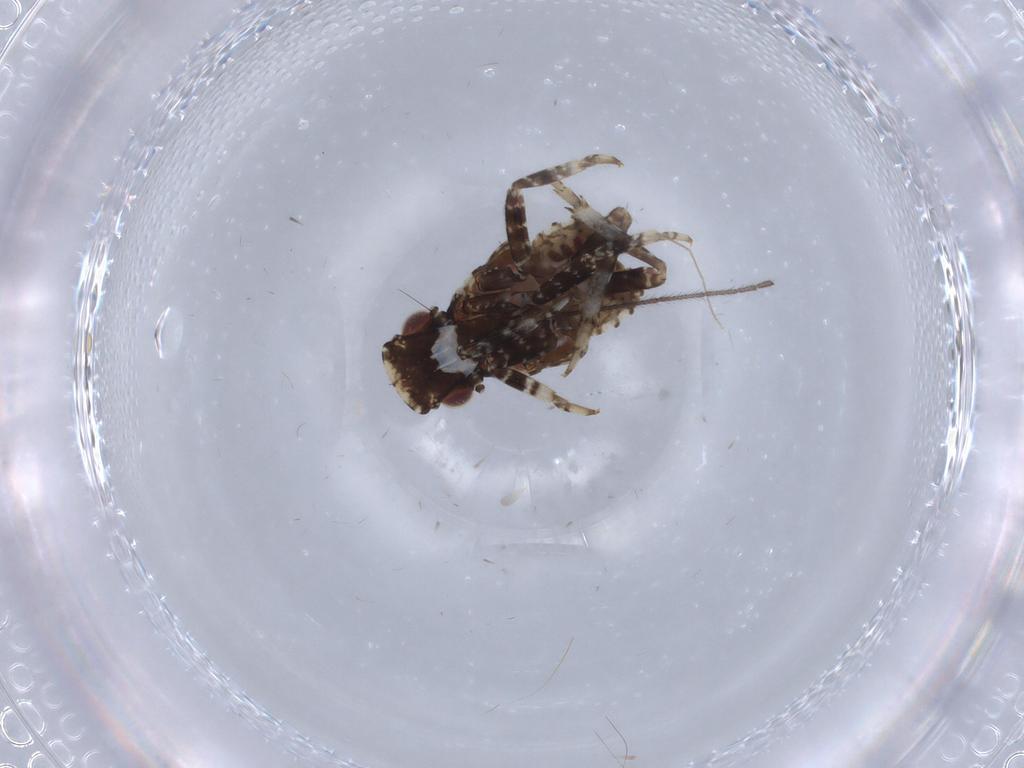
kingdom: Animalia
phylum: Arthropoda
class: Insecta
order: Hemiptera
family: Fulgoridae
